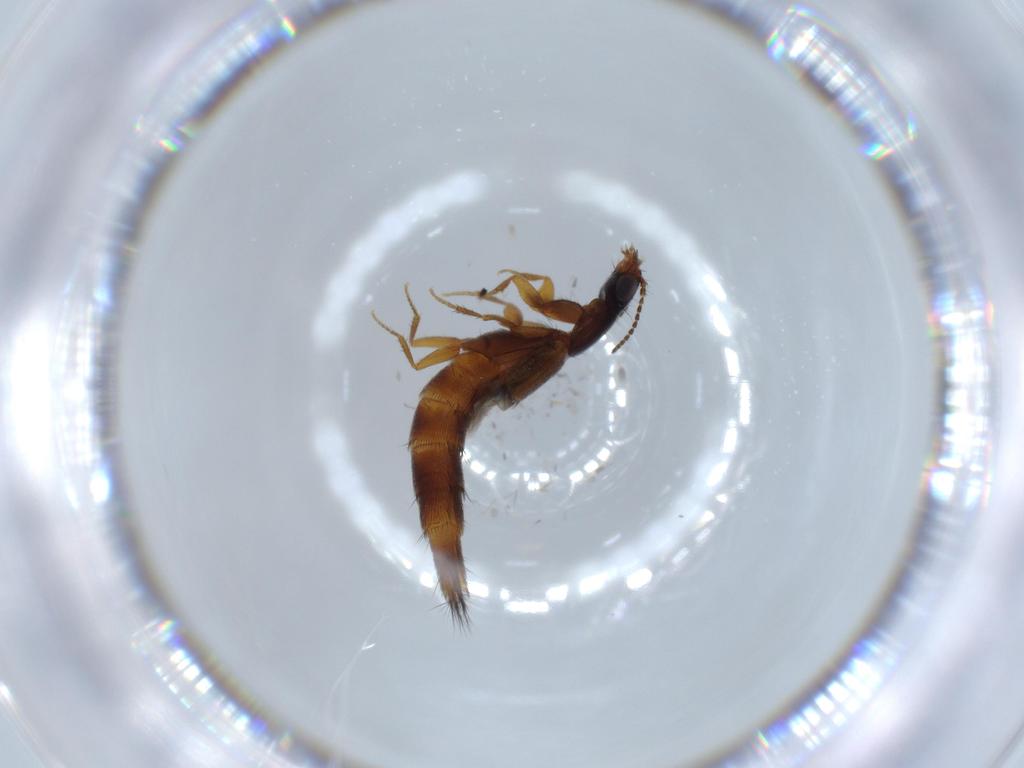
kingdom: Animalia
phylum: Arthropoda
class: Insecta
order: Coleoptera
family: Staphylinidae
